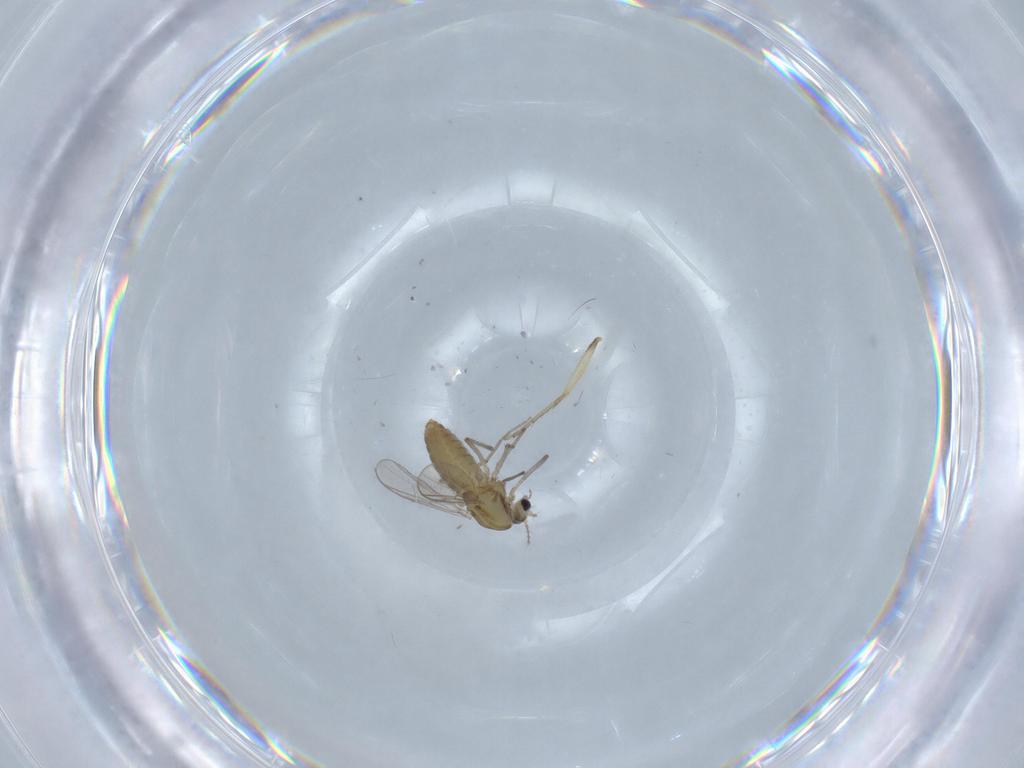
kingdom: Animalia
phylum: Arthropoda
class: Insecta
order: Diptera
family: Chironomidae
